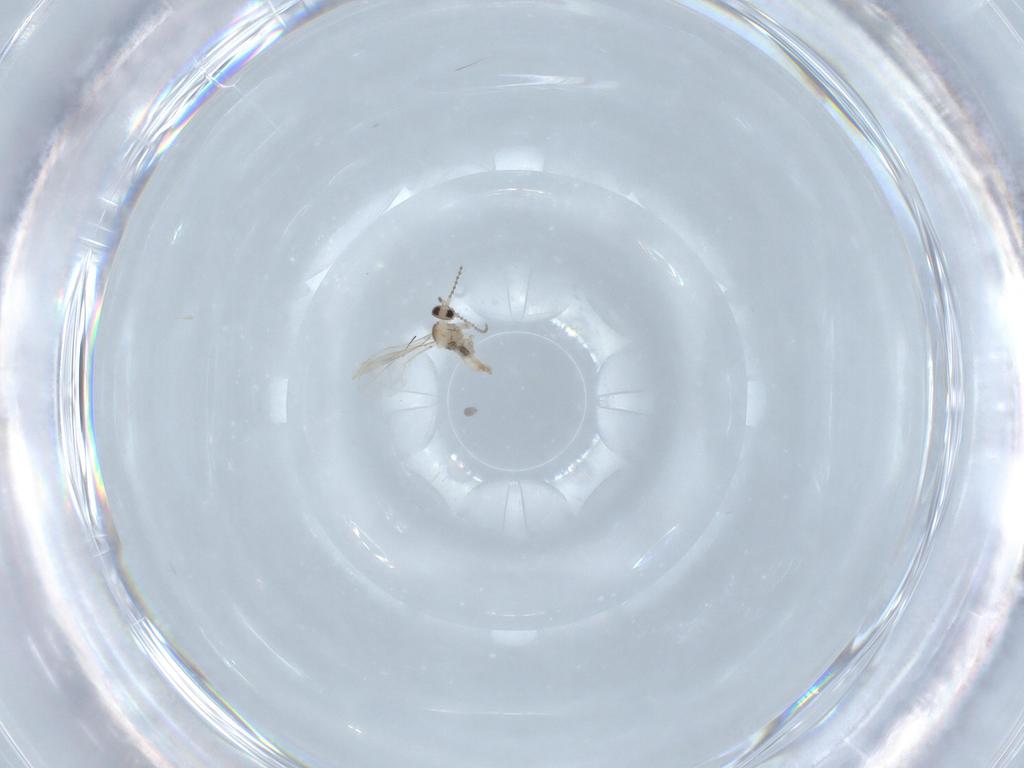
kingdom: Animalia
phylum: Arthropoda
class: Insecta
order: Diptera
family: Cecidomyiidae
